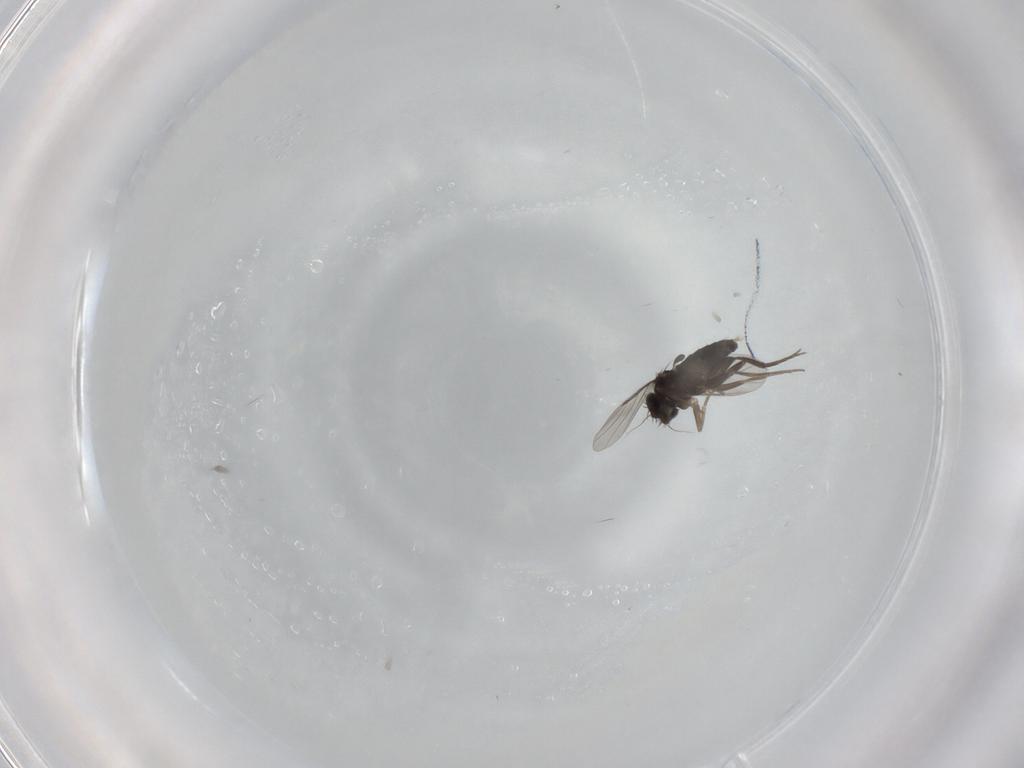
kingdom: Animalia
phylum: Arthropoda
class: Insecta
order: Diptera
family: Phoridae
